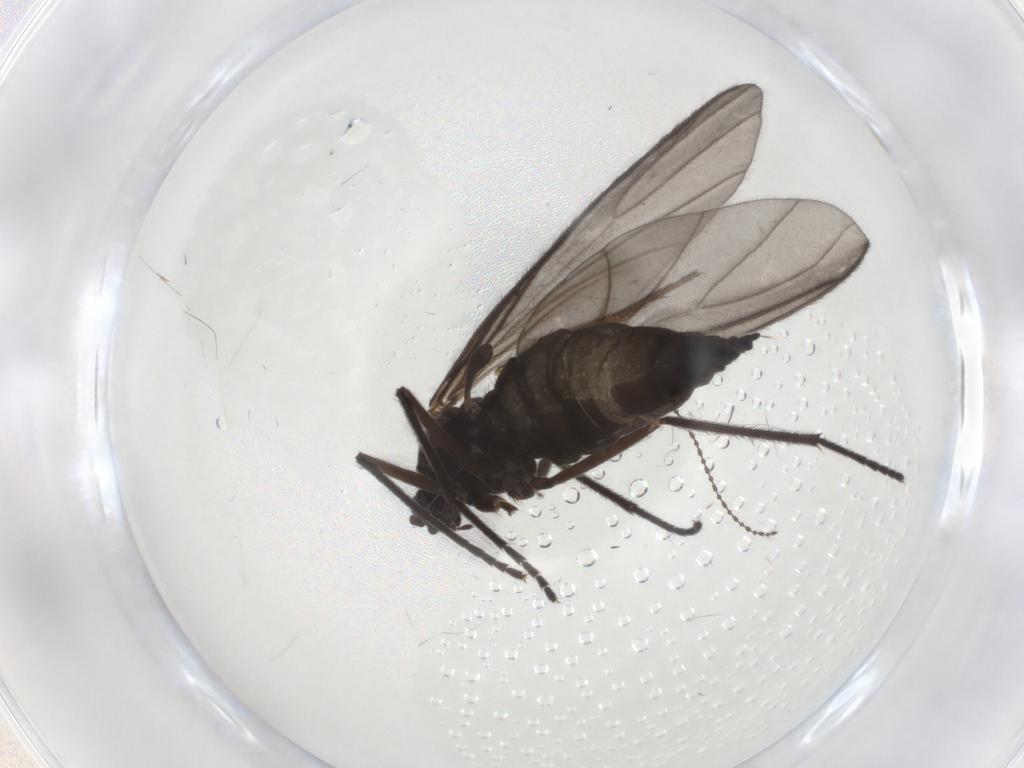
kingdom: Animalia
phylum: Arthropoda
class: Insecta
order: Diptera
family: Sciaridae
